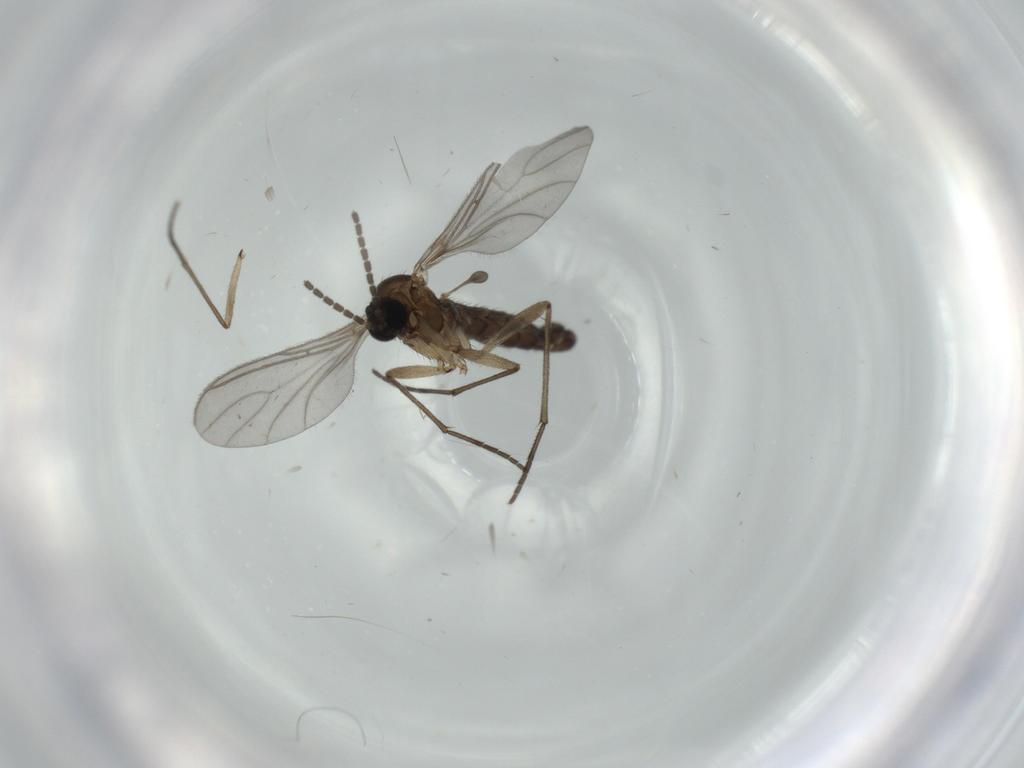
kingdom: Animalia
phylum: Arthropoda
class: Insecta
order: Diptera
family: Sciaridae
